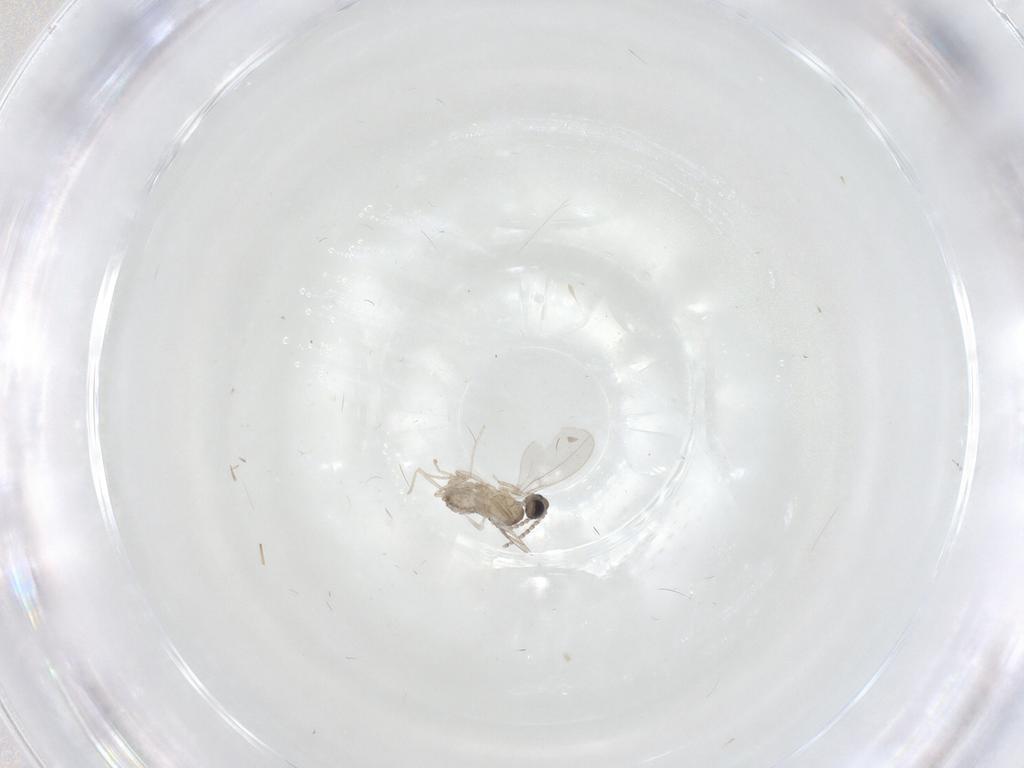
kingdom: Animalia
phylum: Arthropoda
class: Insecta
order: Diptera
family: Cecidomyiidae
